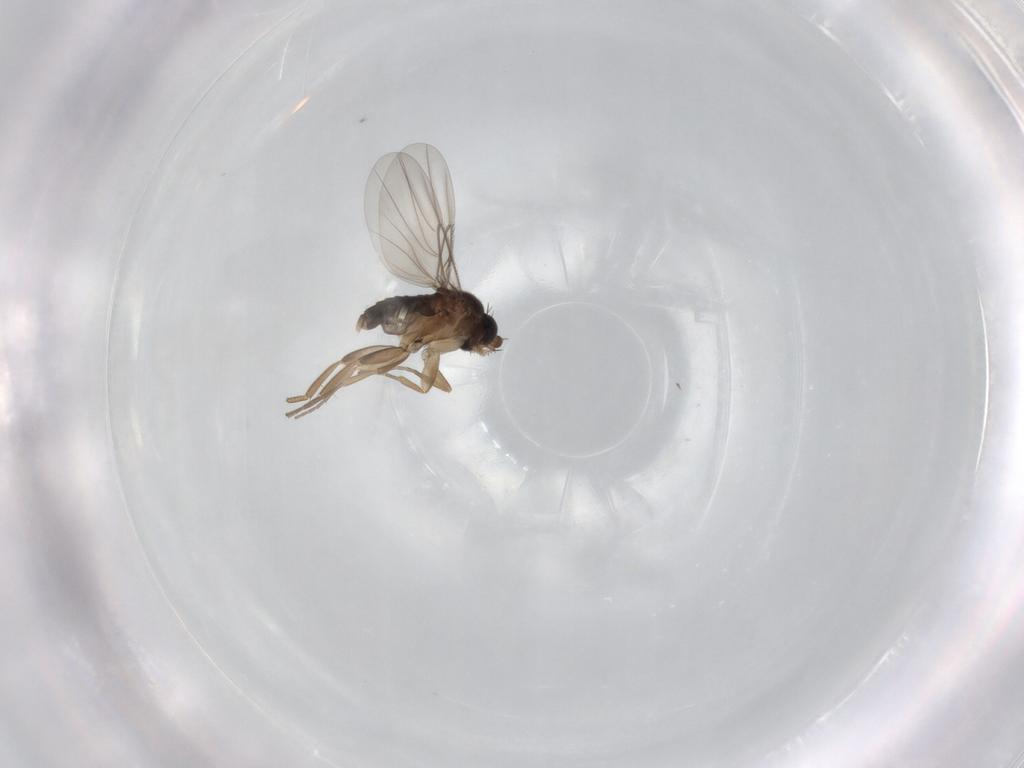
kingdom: Animalia
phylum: Arthropoda
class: Insecta
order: Diptera
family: Phoridae
